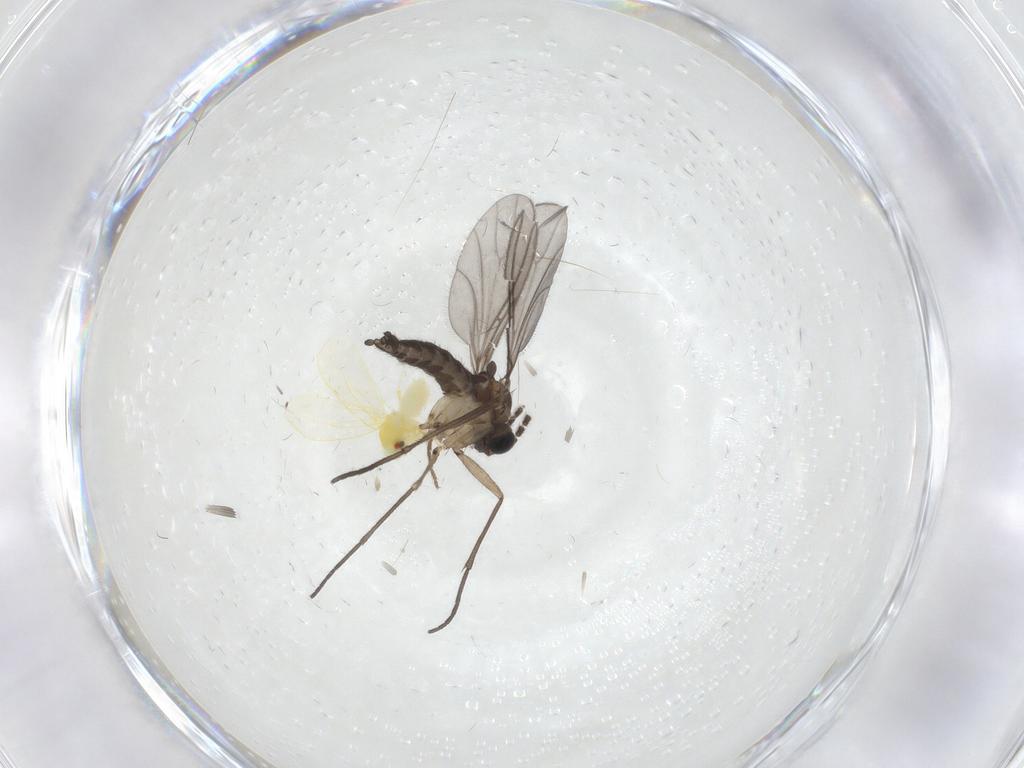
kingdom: Animalia
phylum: Arthropoda
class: Insecta
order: Diptera
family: Sciaridae
